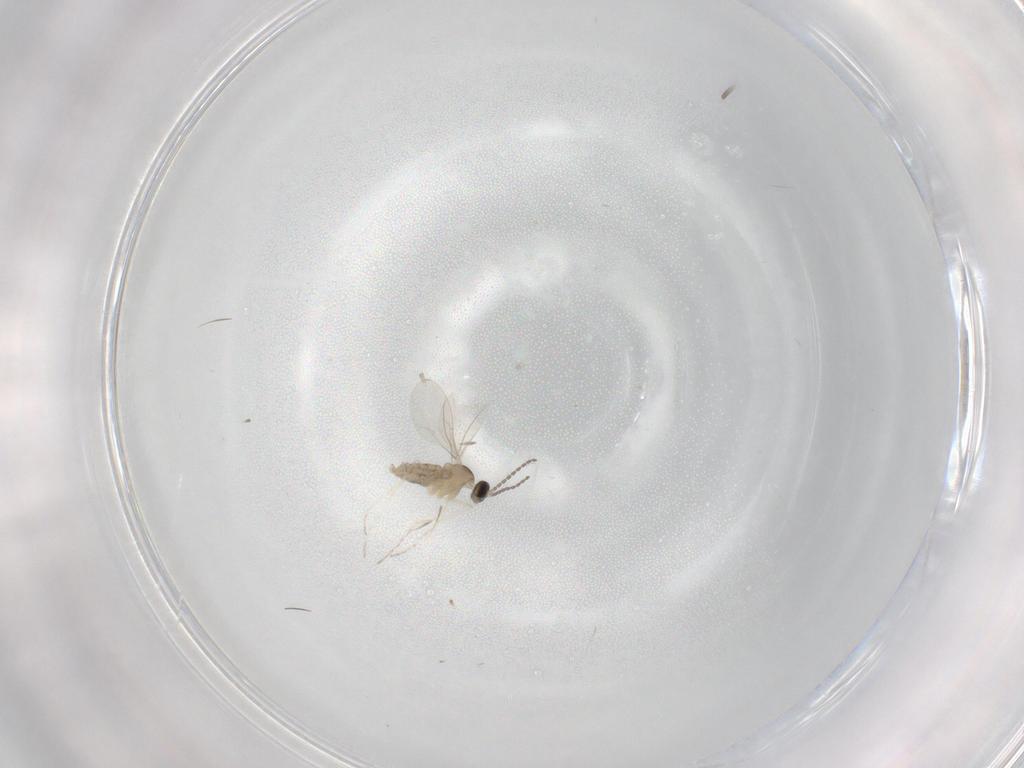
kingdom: Animalia
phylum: Arthropoda
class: Insecta
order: Diptera
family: Cecidomyiidae
